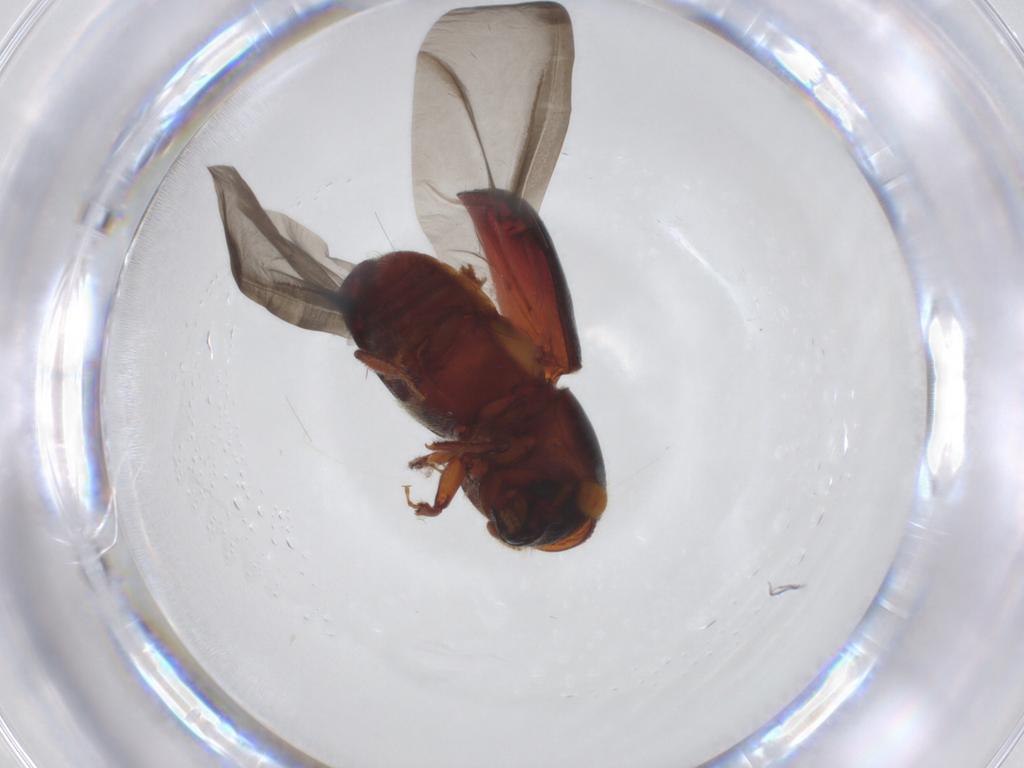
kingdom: Animalia
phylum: Arthropoda
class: Insecta
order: Coleoptera
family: Curculionidae
